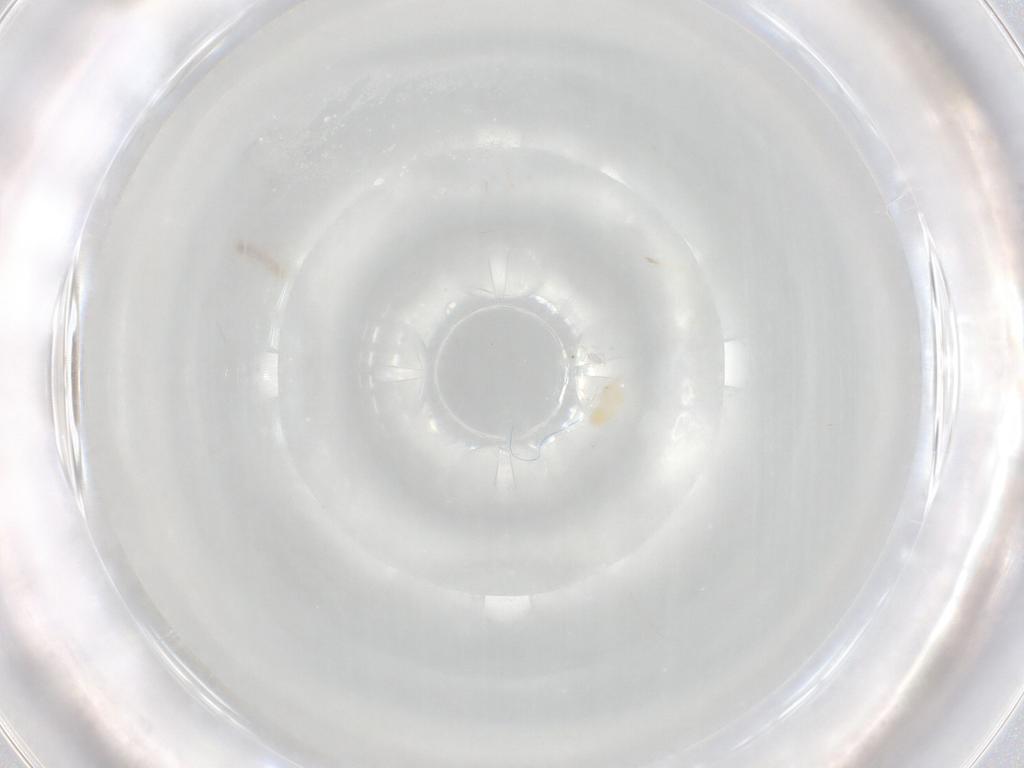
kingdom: Animalia
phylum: Arthropoda
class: Arachnida
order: Trombidiformes
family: Eupodidae
